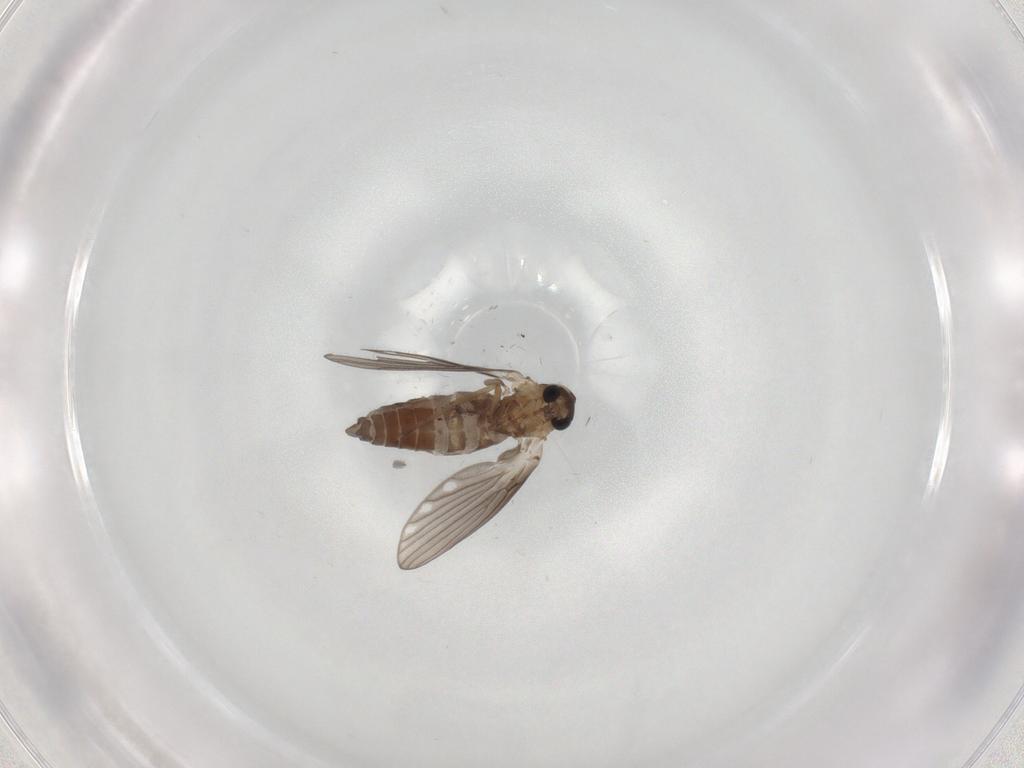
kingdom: Animalia
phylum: Arthropoda
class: Insecta
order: Diptera
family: Psychodidae
